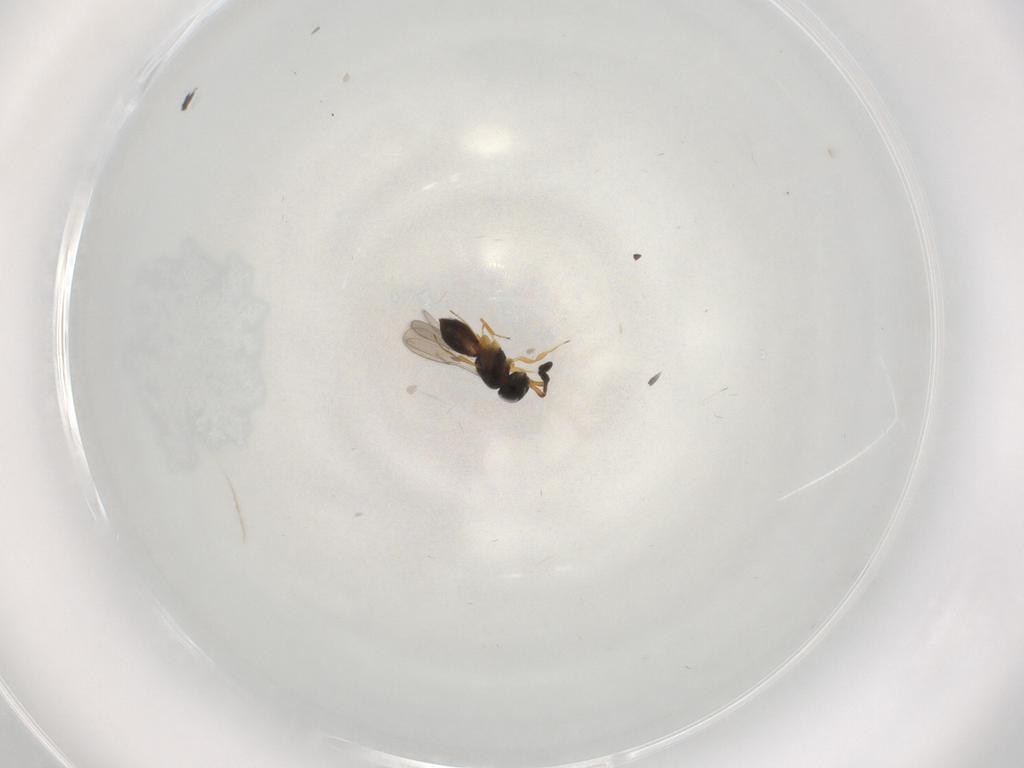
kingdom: Animalia
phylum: Arthropoda
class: Insecta
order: Hymenoptera
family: Scelionidae
